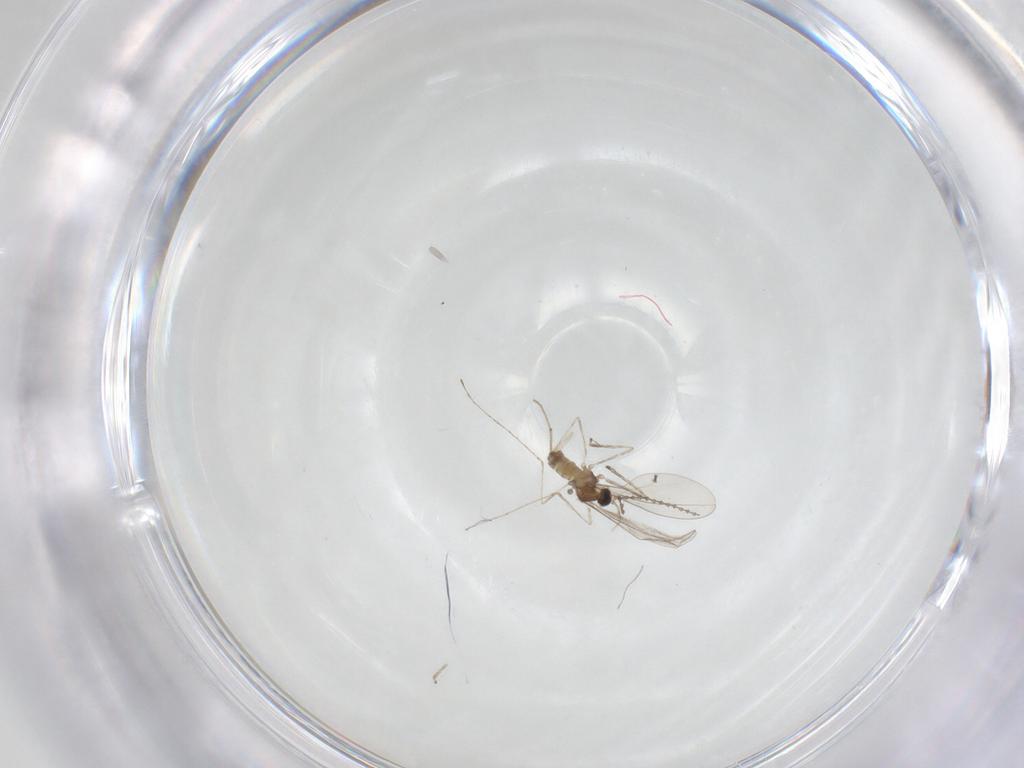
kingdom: Animalia
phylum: Arthropoda
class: Insecta
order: Diptera
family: Cecidomyiidae
